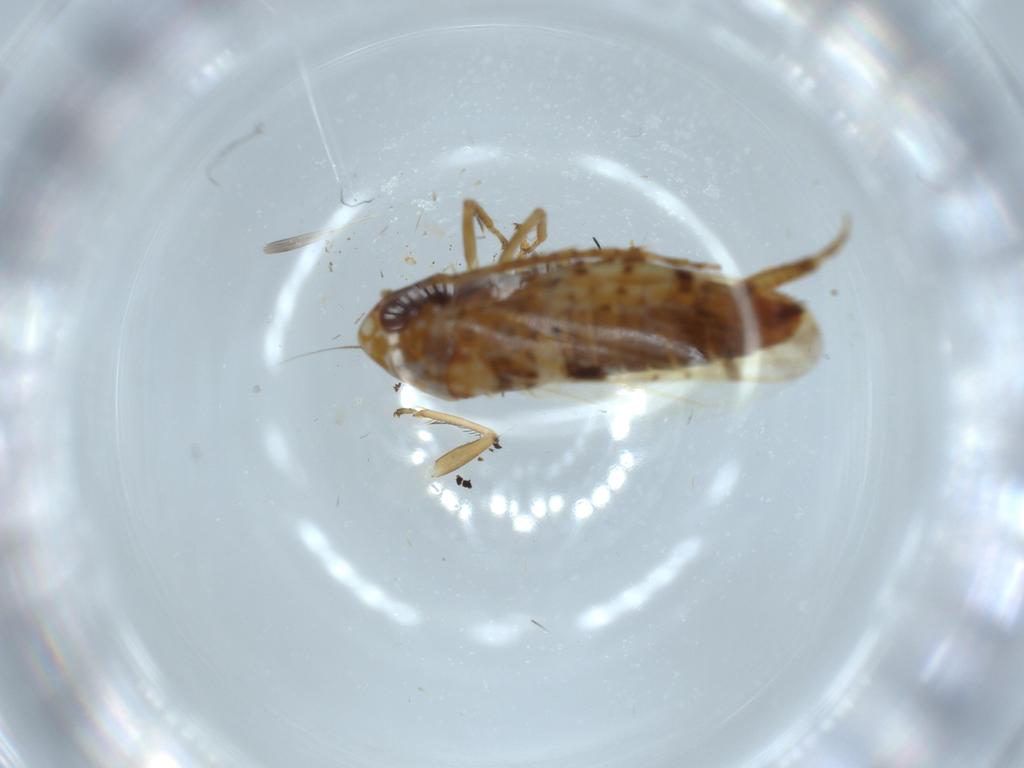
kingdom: Animalia
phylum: Arthropoda
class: Insecta
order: Hemiptera
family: Cicadellidae
